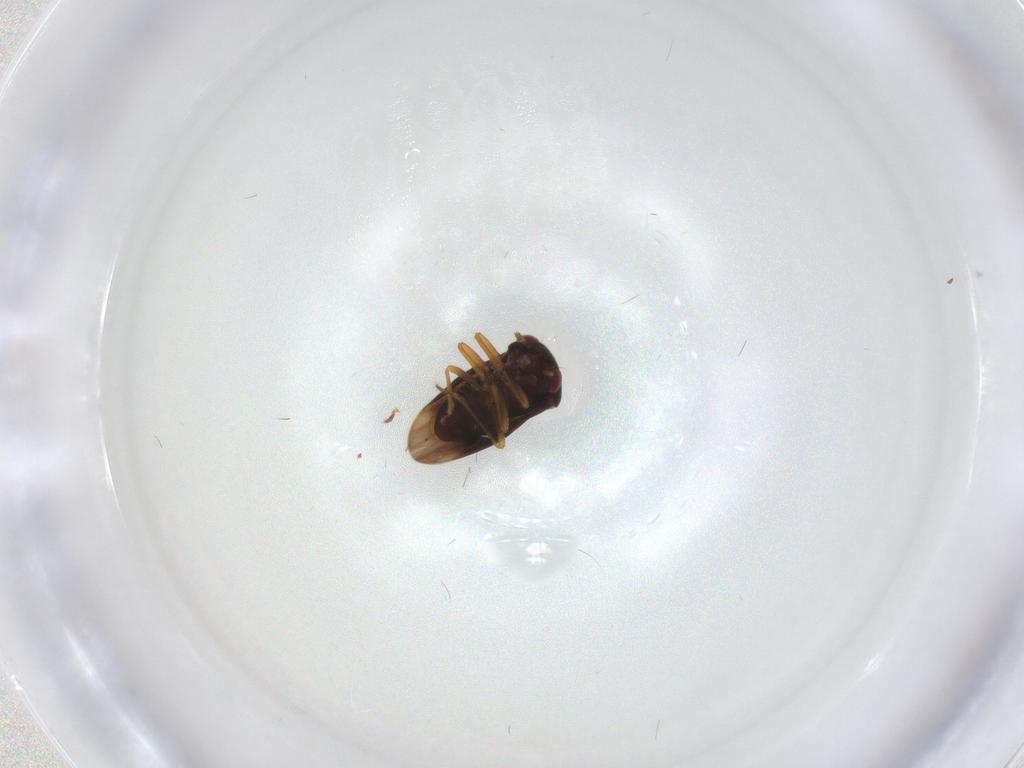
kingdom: Animalia
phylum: Arthropoda
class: Insecta
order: Hemiptera
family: Schizopteridae
